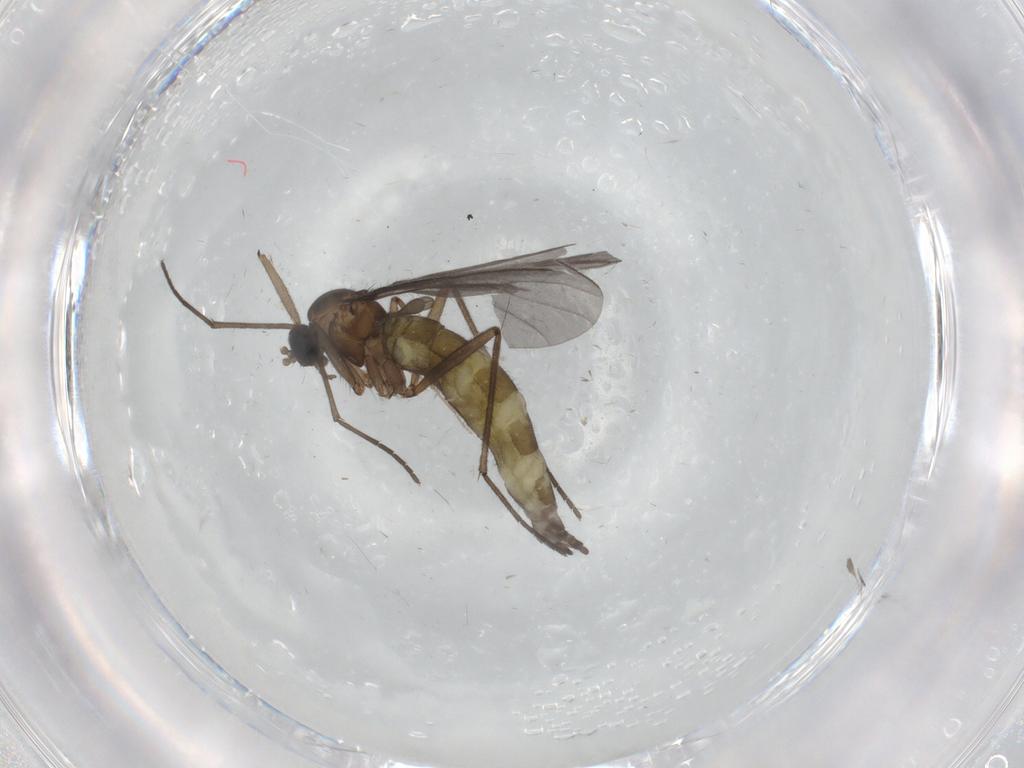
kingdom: Animalia
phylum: Arthropoda
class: Insecta
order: Diptera
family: Sciaridae
